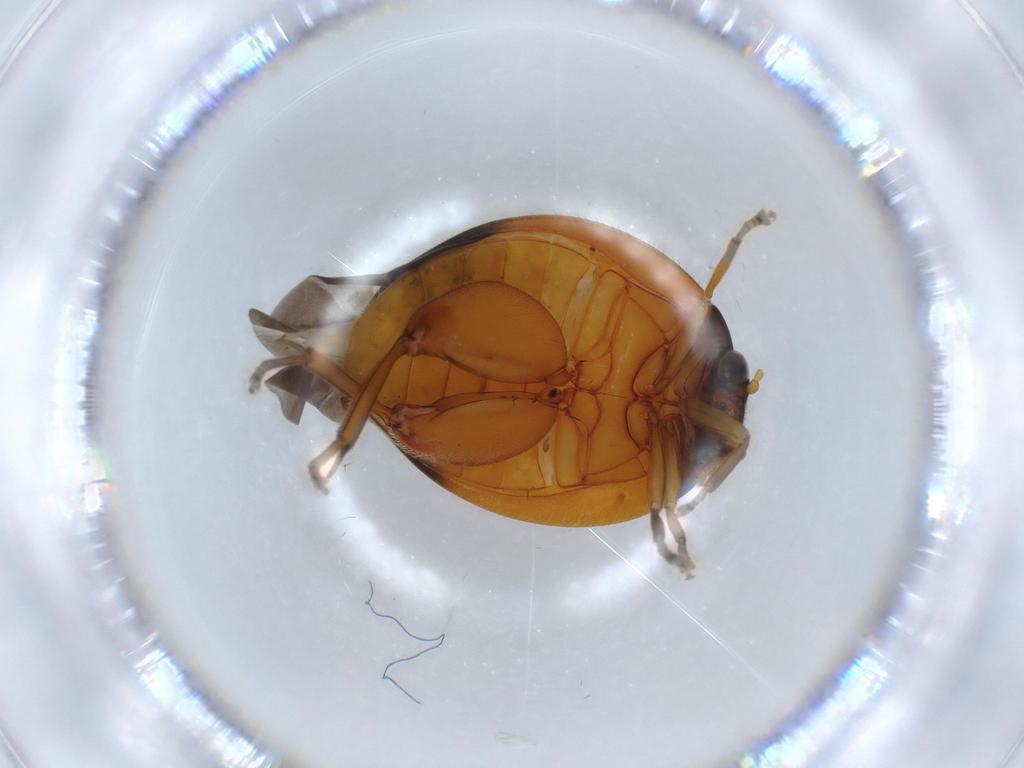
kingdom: Animalia
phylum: Arthropoda
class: Insecta
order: Coleoptera
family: Scirtidae
